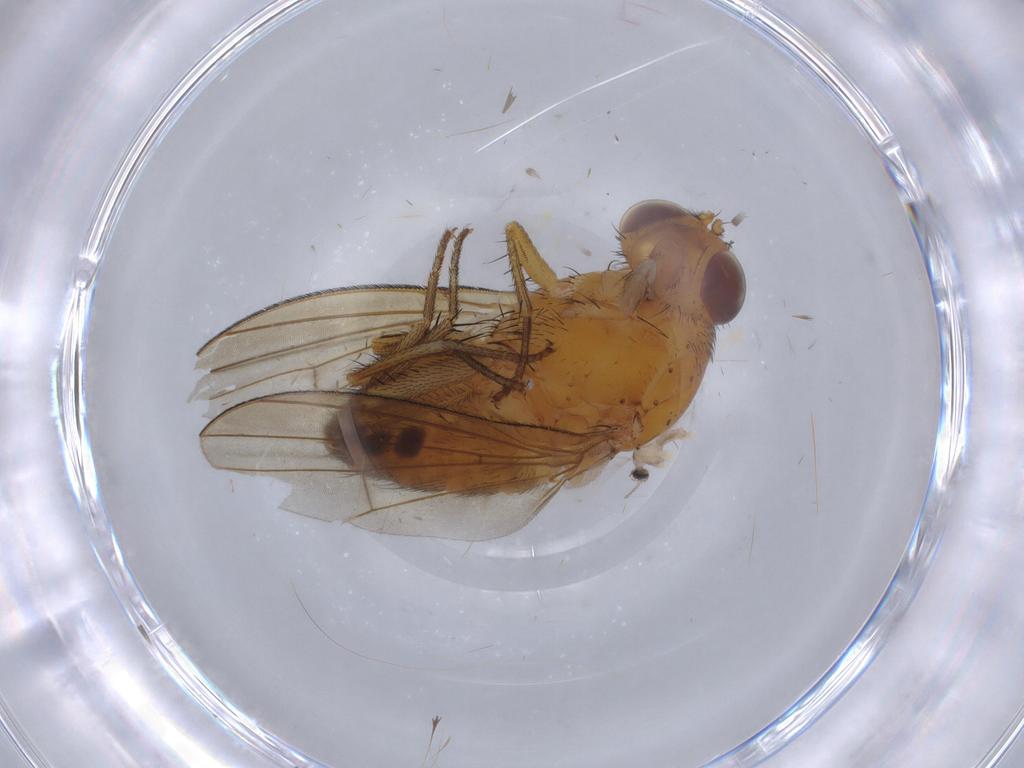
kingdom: Animalia
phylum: Arthropoda
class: Insecta
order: Diptera
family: Lauxaniidae
